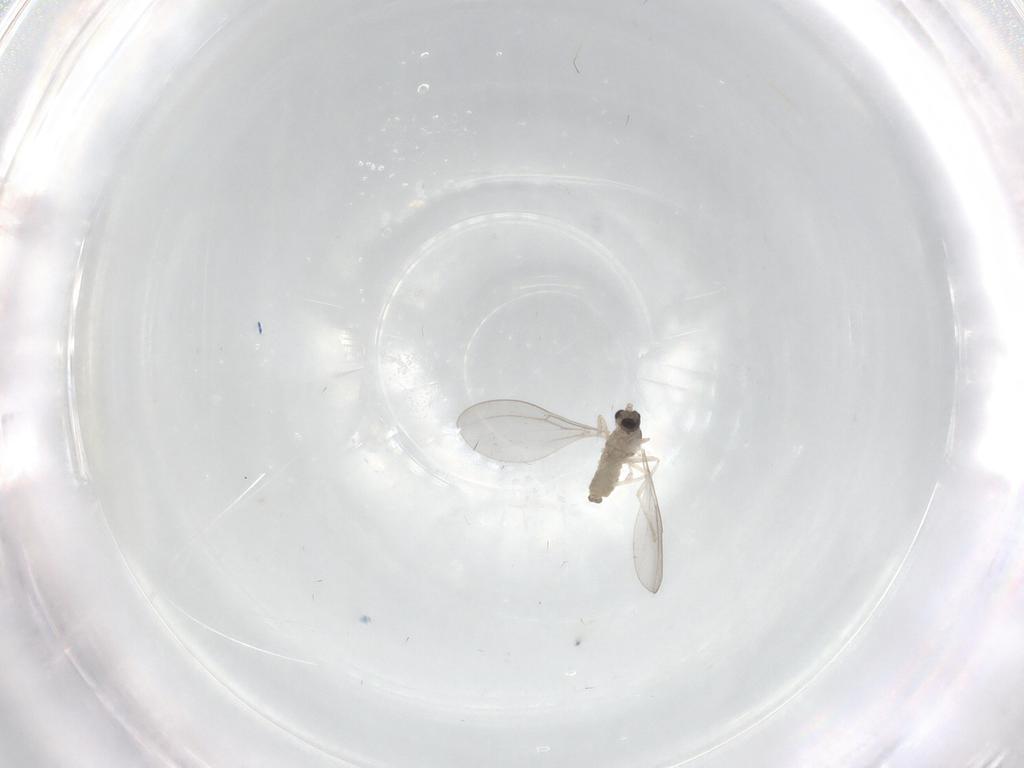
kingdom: Animalia
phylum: Arthropoda
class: Insecta
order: Diptera
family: Cecidomyiidae
